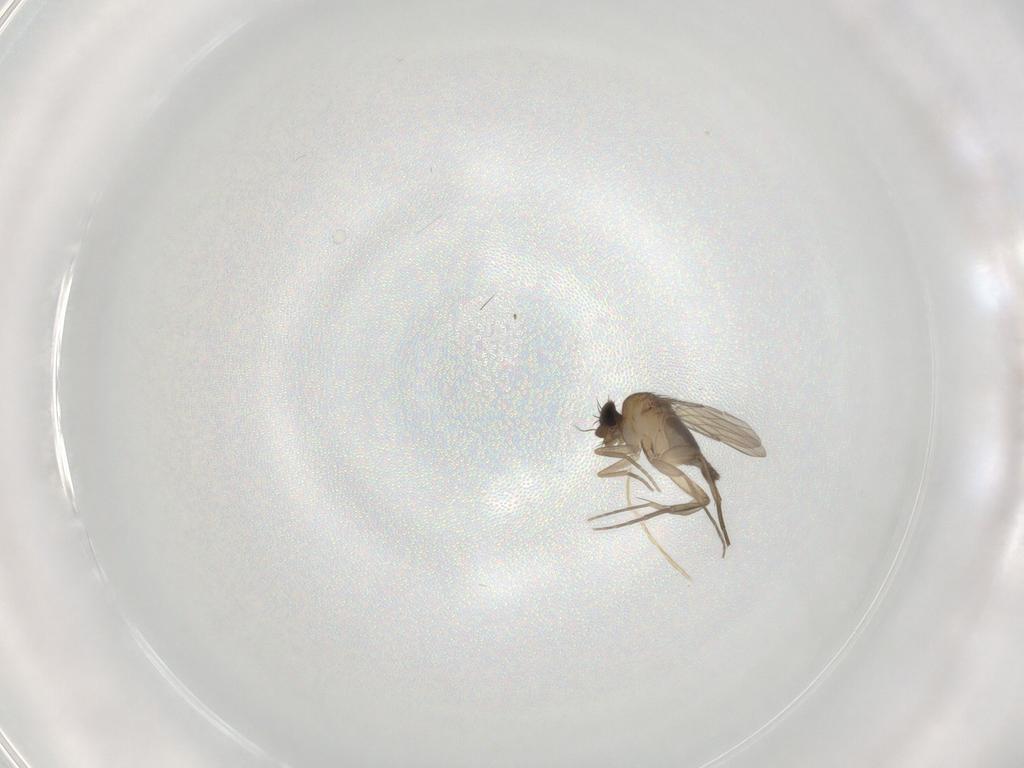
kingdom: Animalia
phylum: Arthropoda
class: Insecta
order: Diptera
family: Phoridae
